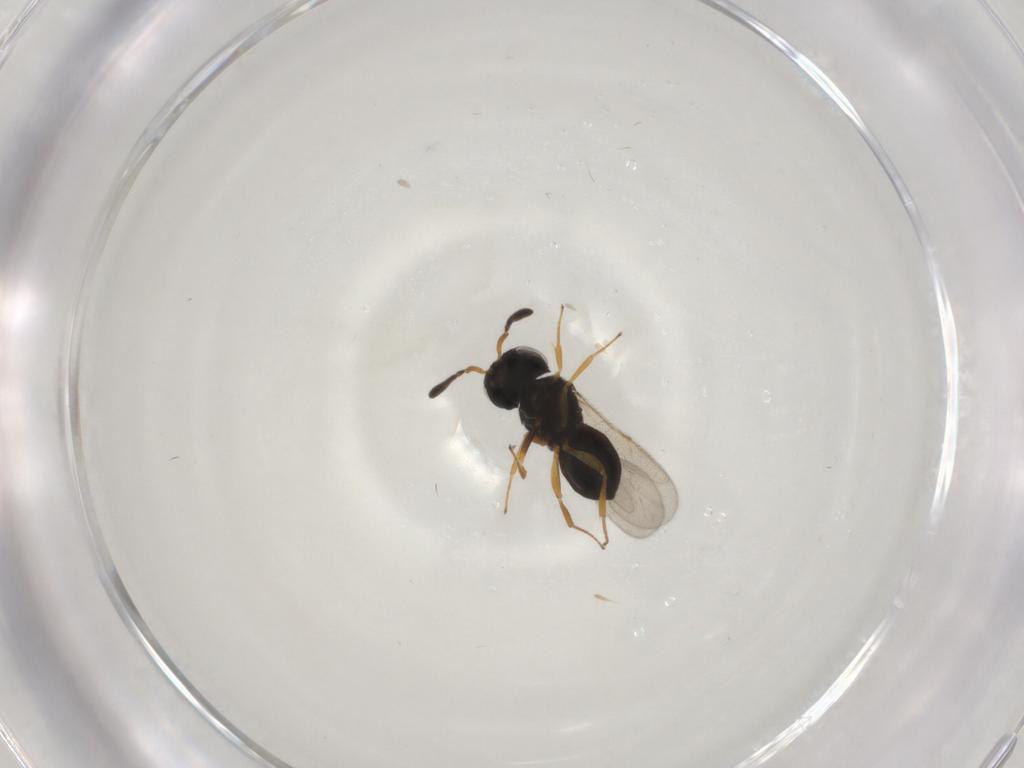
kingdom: Animalia
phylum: Arthropoda
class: Insecta
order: Hymenoptera
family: Scelionidae
